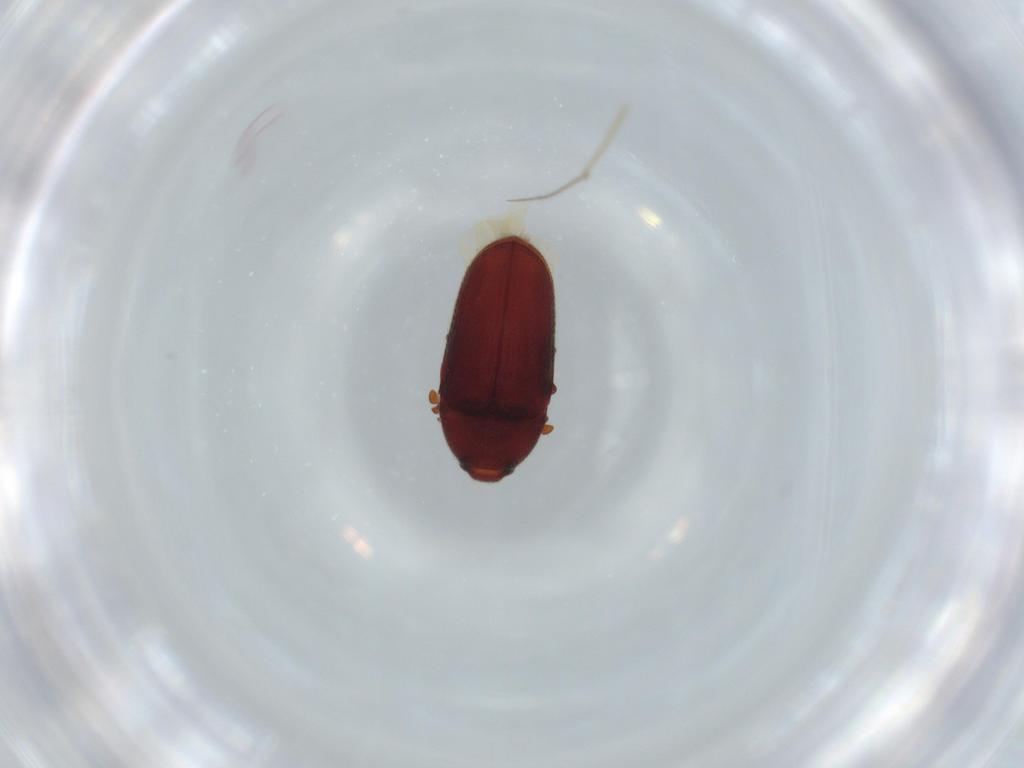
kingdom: Animalia
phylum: Arthropoda
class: Insecta
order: Coleoptera
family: Throscidae
